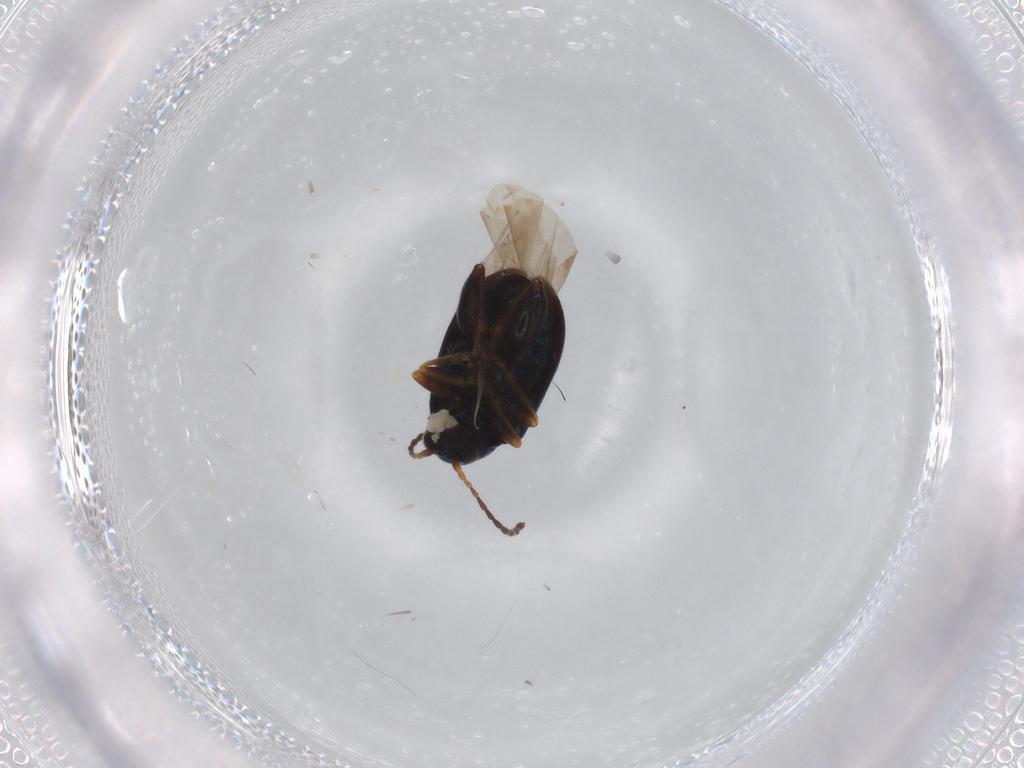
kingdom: Animalia
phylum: Arthropoda
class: Insecta
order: Coleoptera
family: Chrysomelidae
